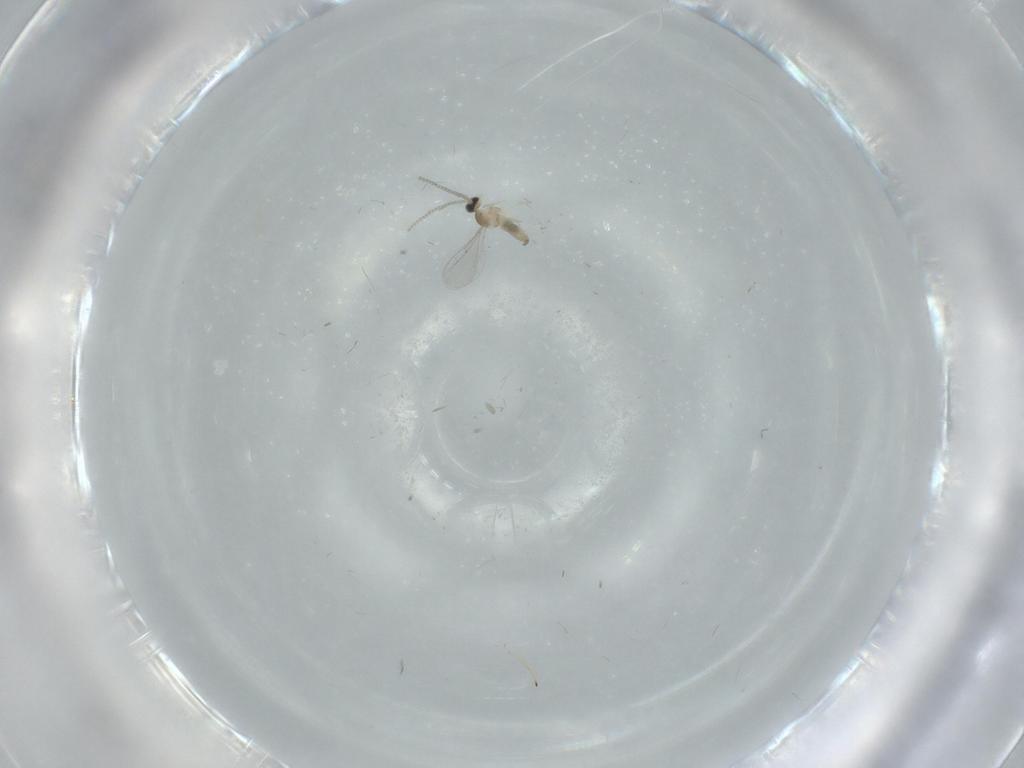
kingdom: Animalia
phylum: Arthropoda
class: Insecta
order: Diptera
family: Cecidomyiidae
